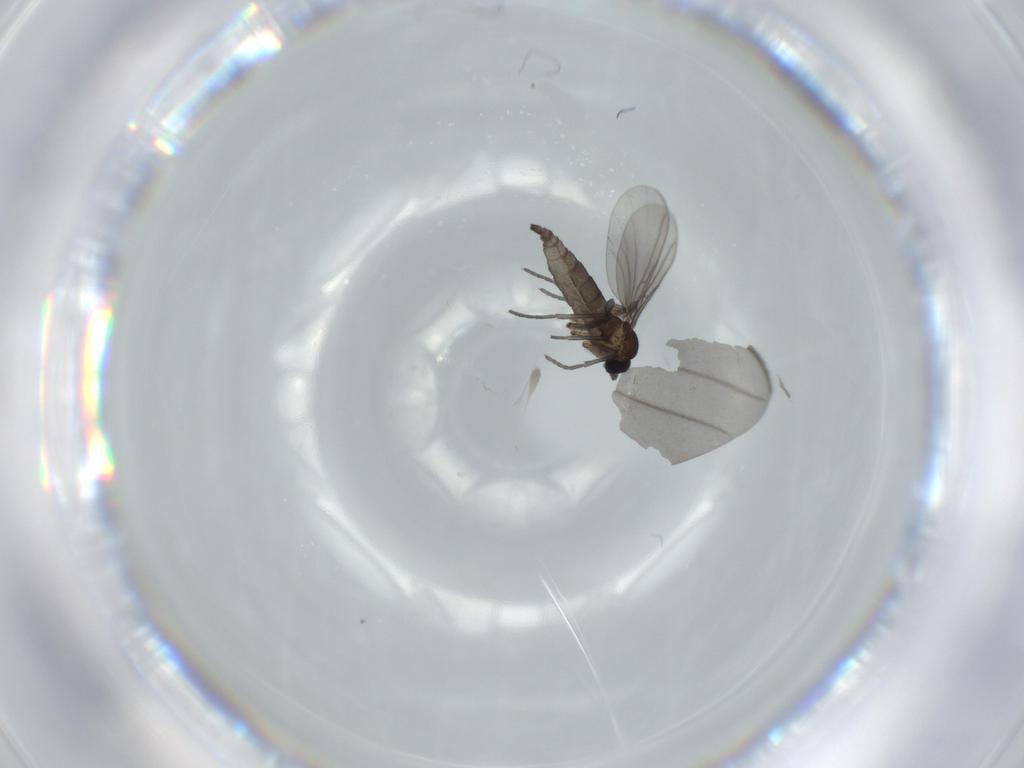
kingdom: Animalia
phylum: Arthropoda
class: Insecta
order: Diptera
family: Sciaridae
